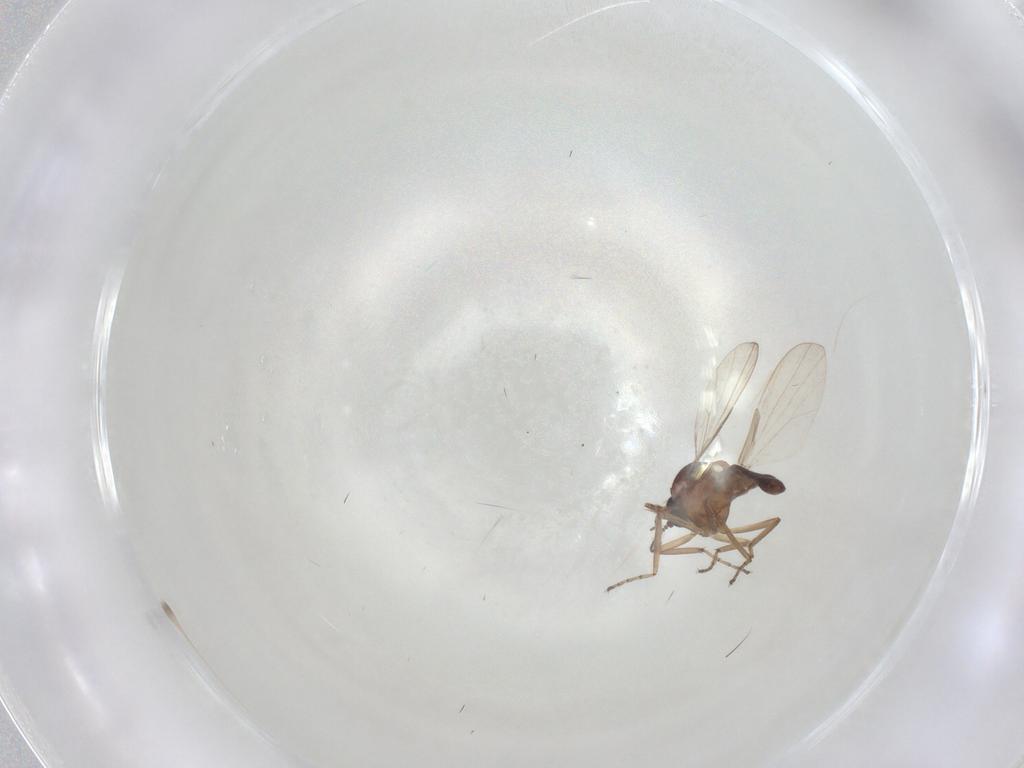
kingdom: Animalia
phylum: Arthropoda
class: Insecta
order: Diptera
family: Ceratopogonidae
